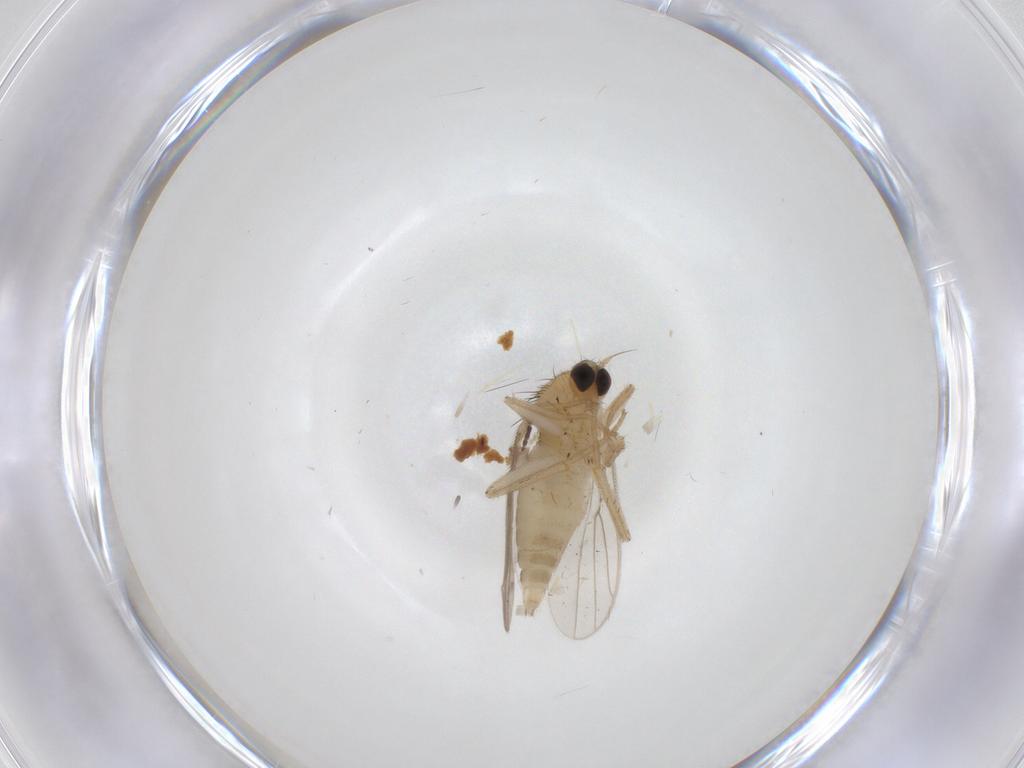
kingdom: Animalia
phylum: Arthropoda
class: Insecta
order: Diptera
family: Hybotidae
